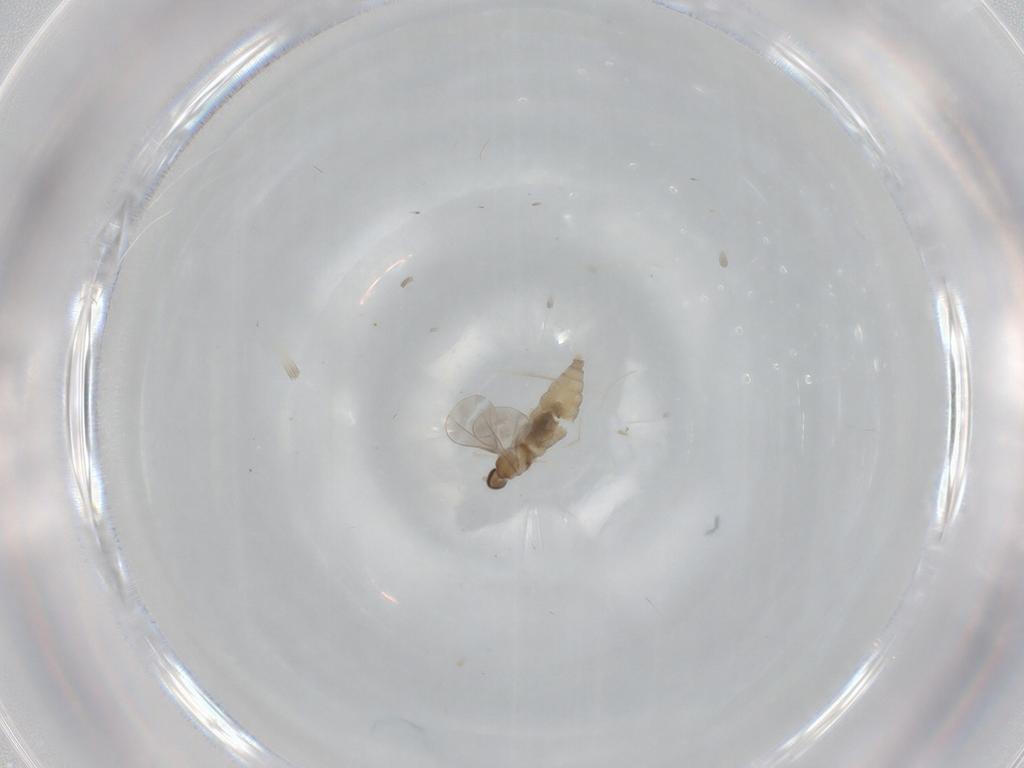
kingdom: Animalia
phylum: Arthropoda
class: Insecta
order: Diptera
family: Cecidomyiidae
